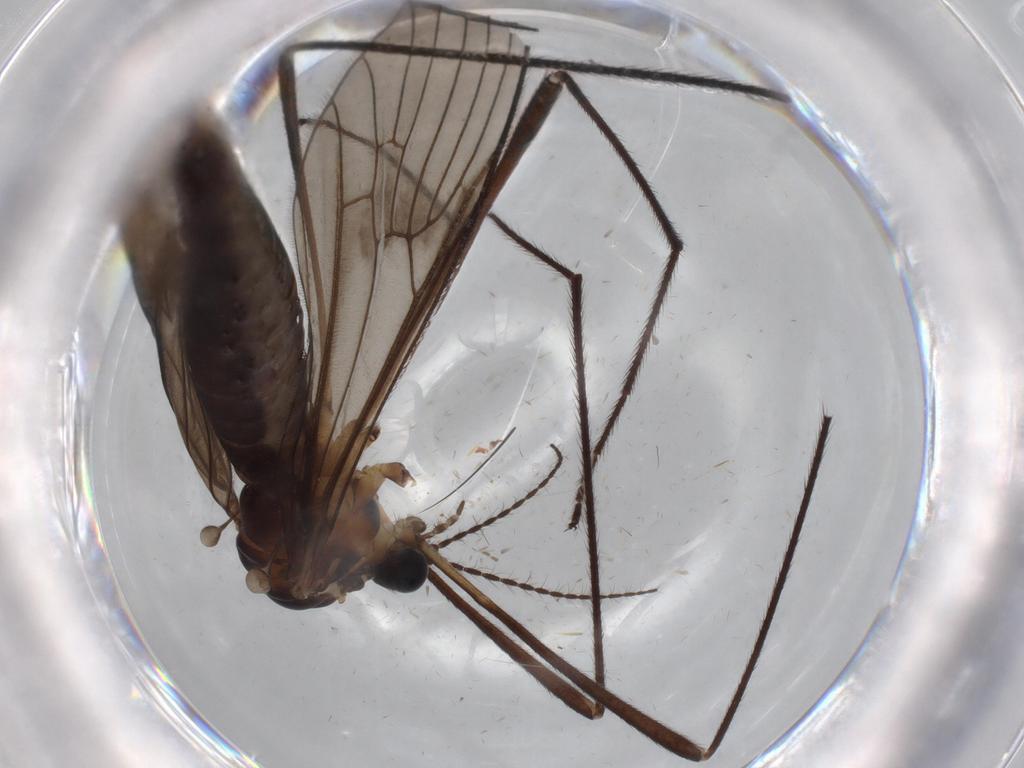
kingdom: Animalia
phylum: Arthropoda
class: Insecta
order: Diptera
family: Limoniidae
